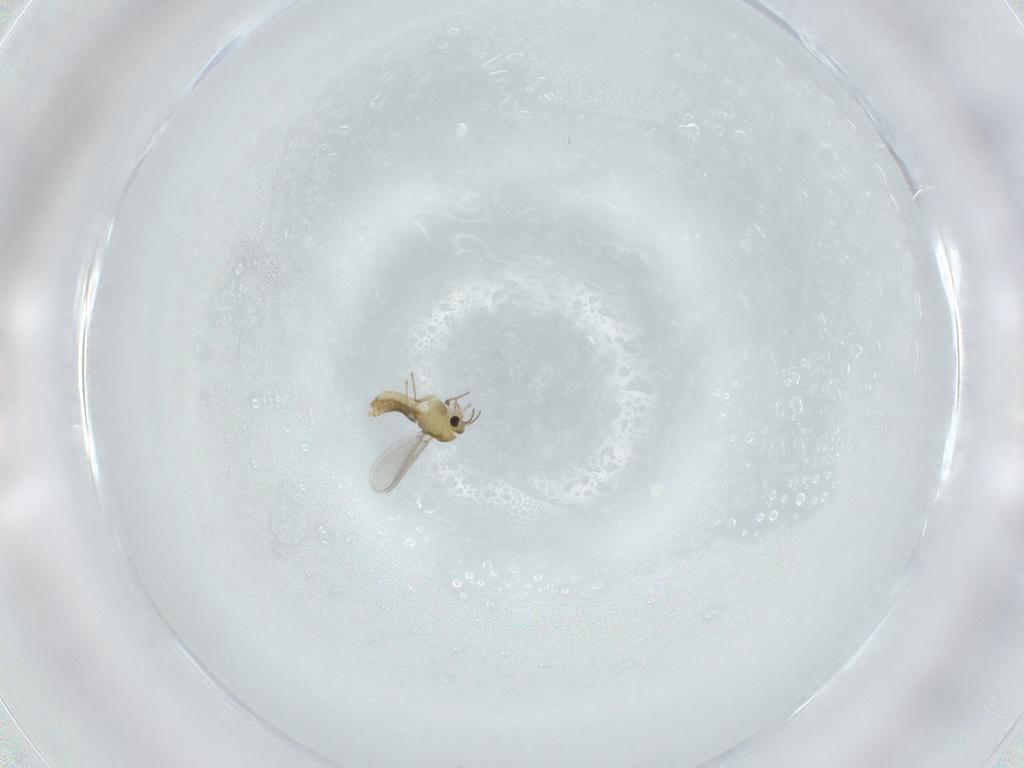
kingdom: Animalia
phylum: Arthropoda
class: Insecta
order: Diptera
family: Chironomidae
